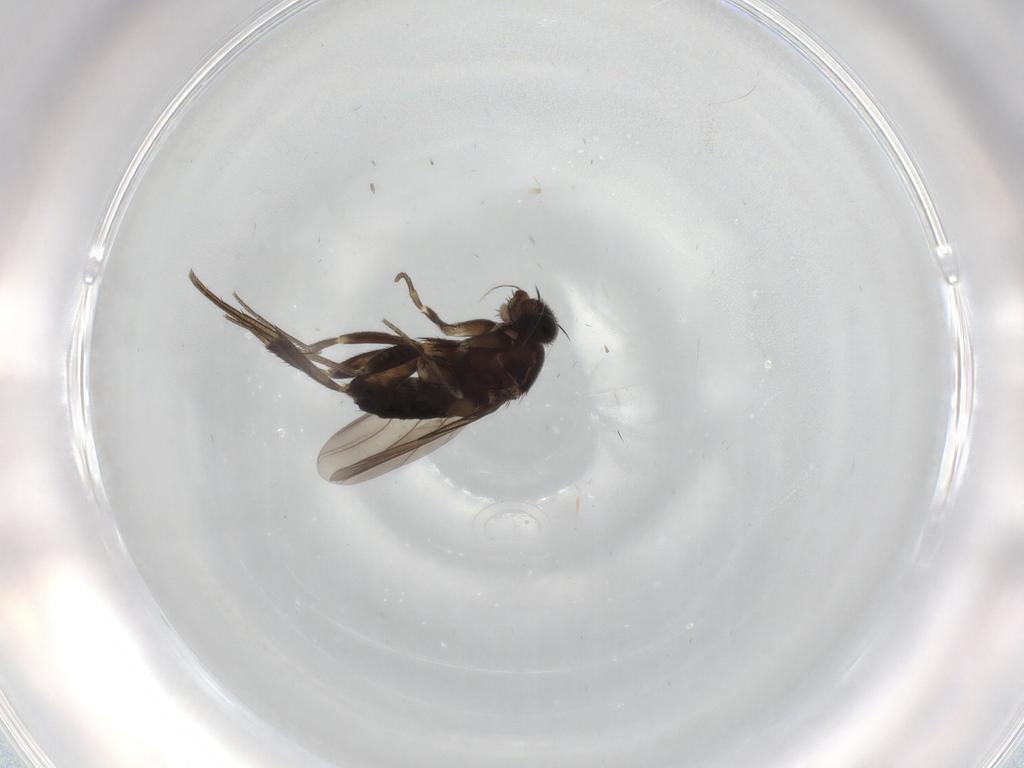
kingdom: Animalia
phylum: Arthropoda
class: Insecta
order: Diptera
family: Phoridae
